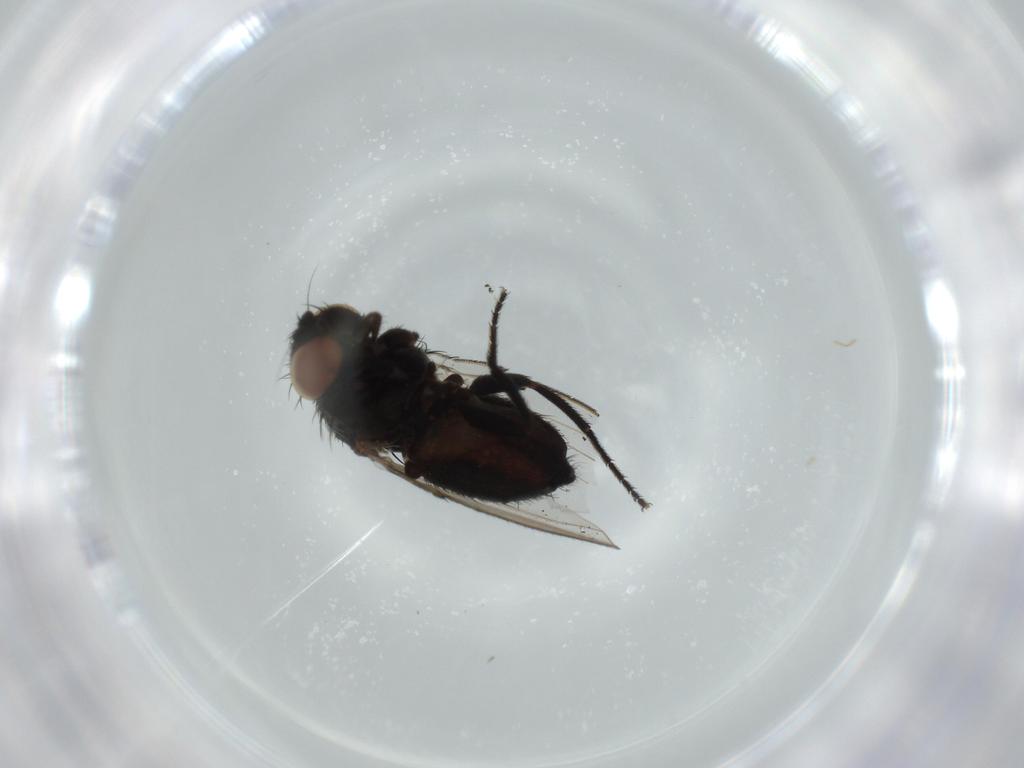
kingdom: Animalia
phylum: Arthropoda
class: Insecta
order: Diptera
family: Milichiidae
